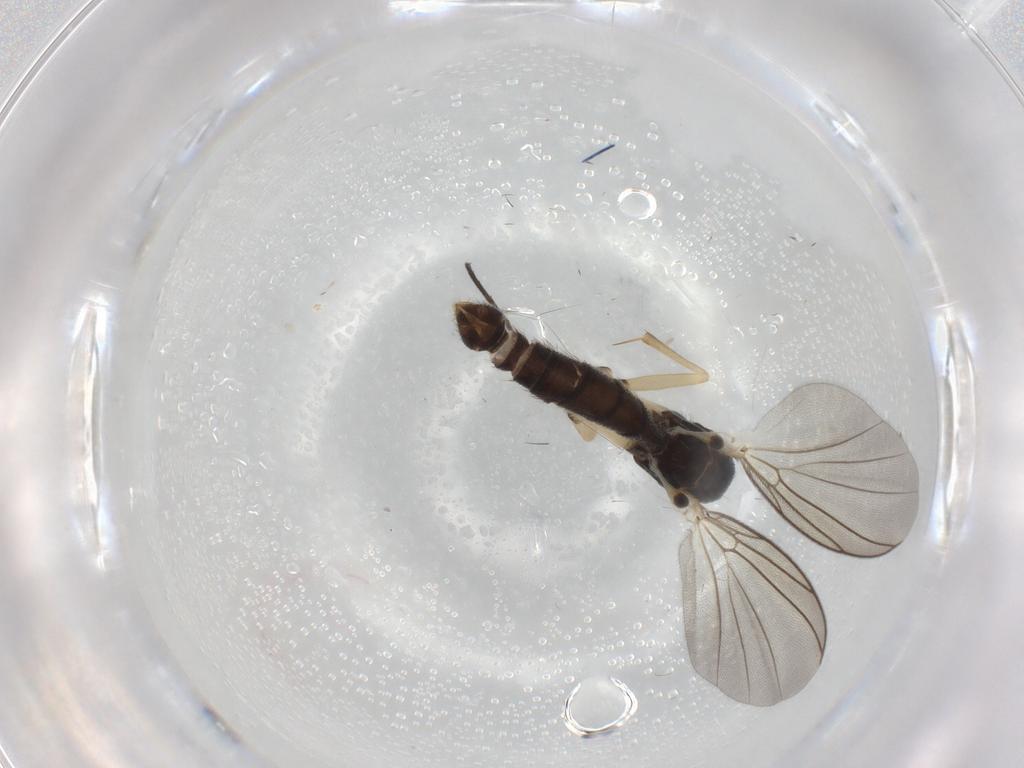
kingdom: Animalia
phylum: Arthropoda
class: Insecta
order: Diptera
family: Mycetophilidae
